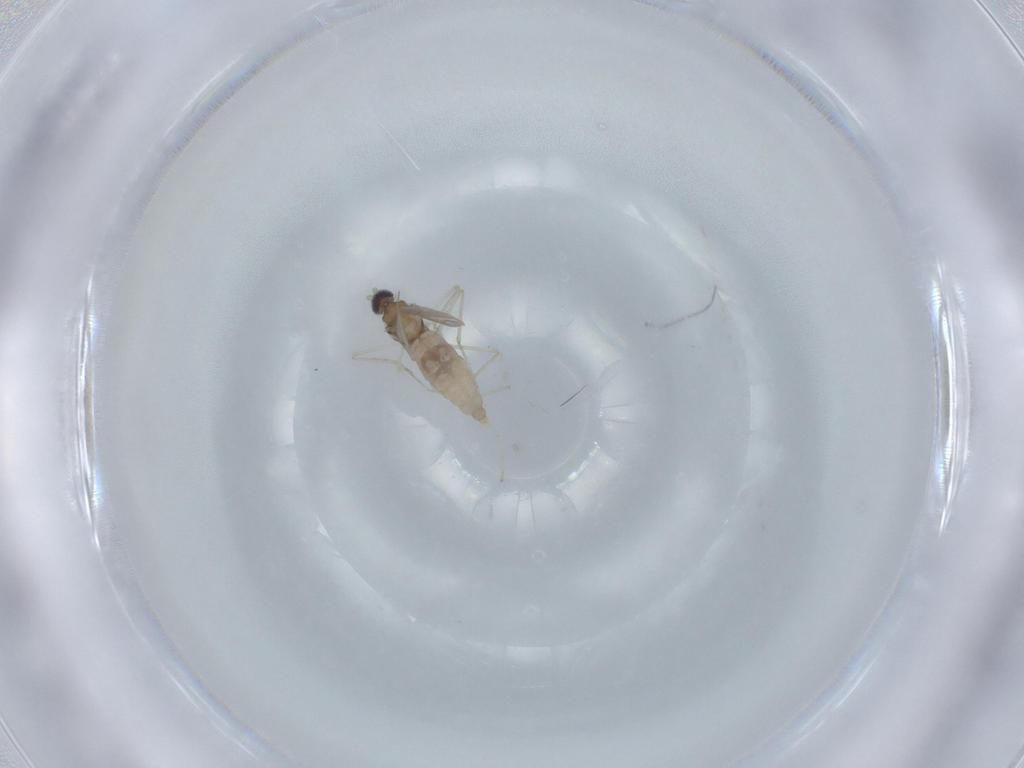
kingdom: Animalia
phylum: Arthropoda
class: Insecta
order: Diptera
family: Cecidomyiidae
